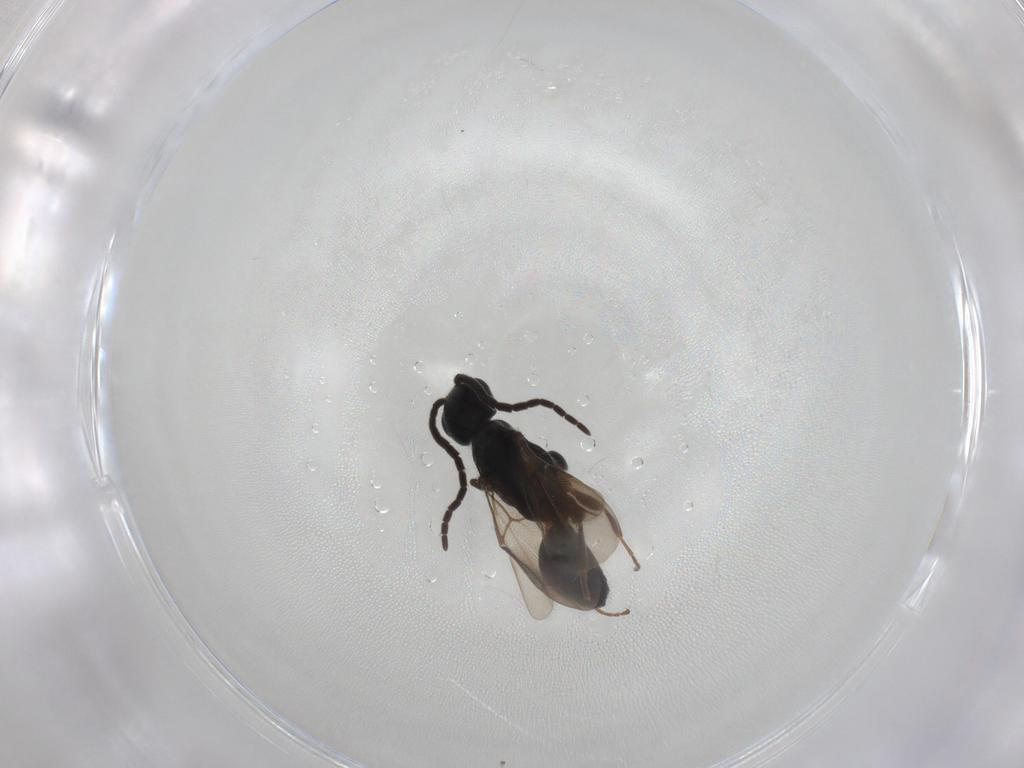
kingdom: Animalia
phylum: Arthropoda
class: Insecta
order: Hymenoptera
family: Bethylidae
